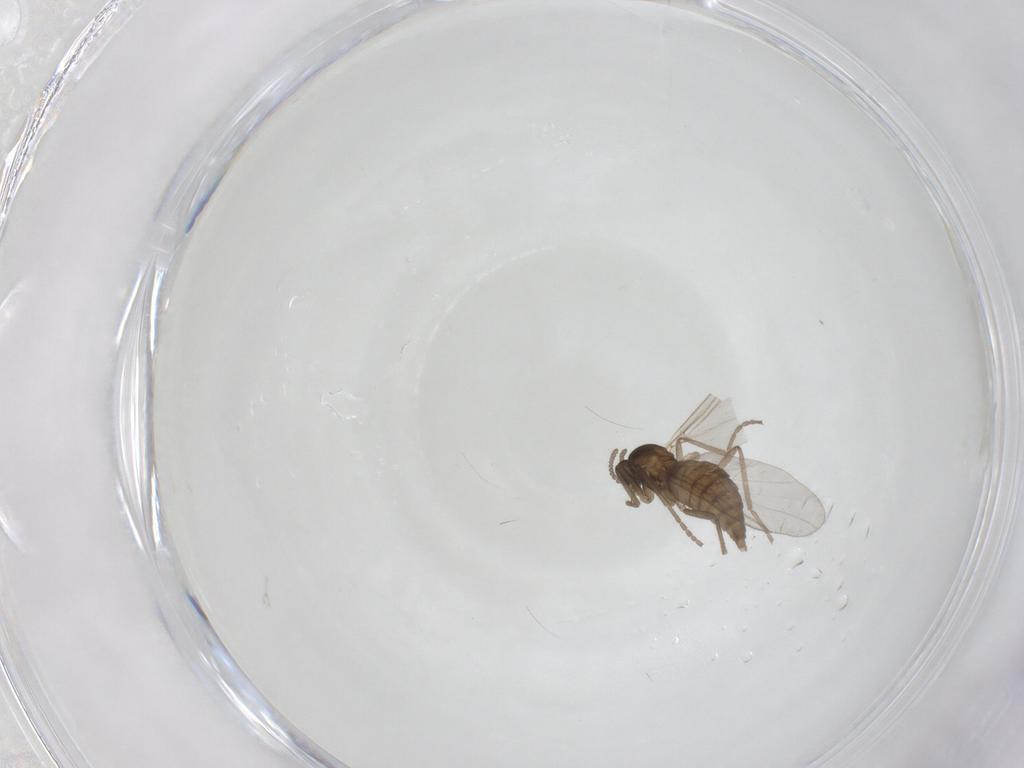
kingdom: Animalia
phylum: Arthropoda
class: Insecta
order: Diptera
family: Cecidomyiidae
